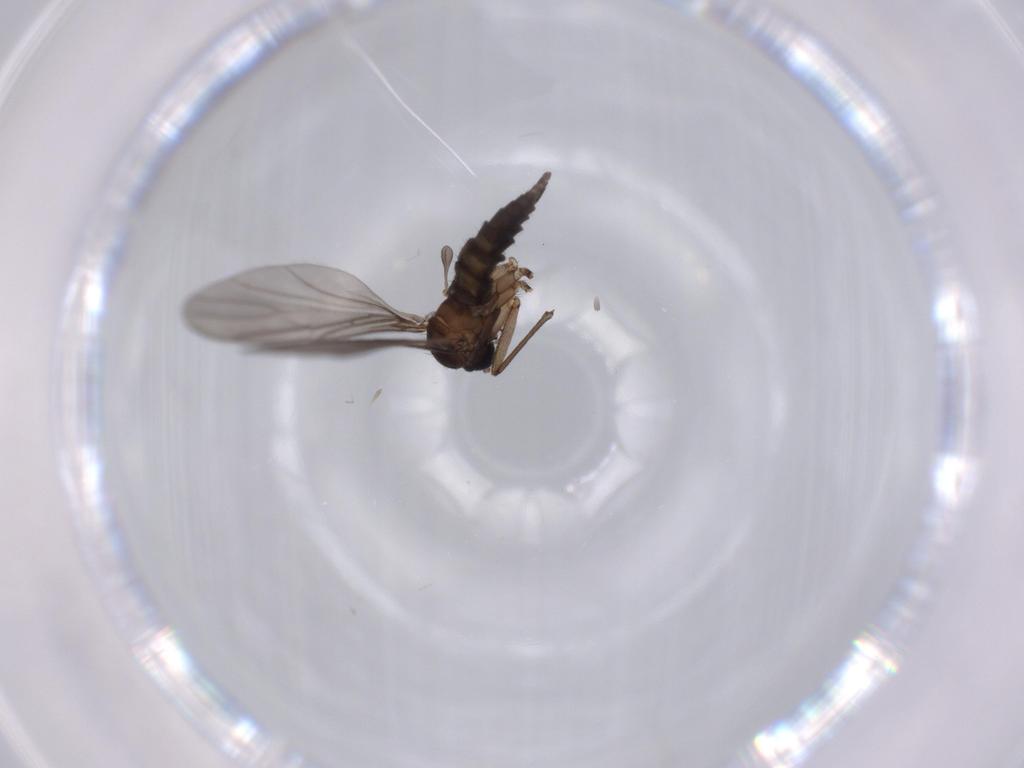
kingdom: Animalia
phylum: Arthropoda
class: Insecta
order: Diptera
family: Sciaridae
